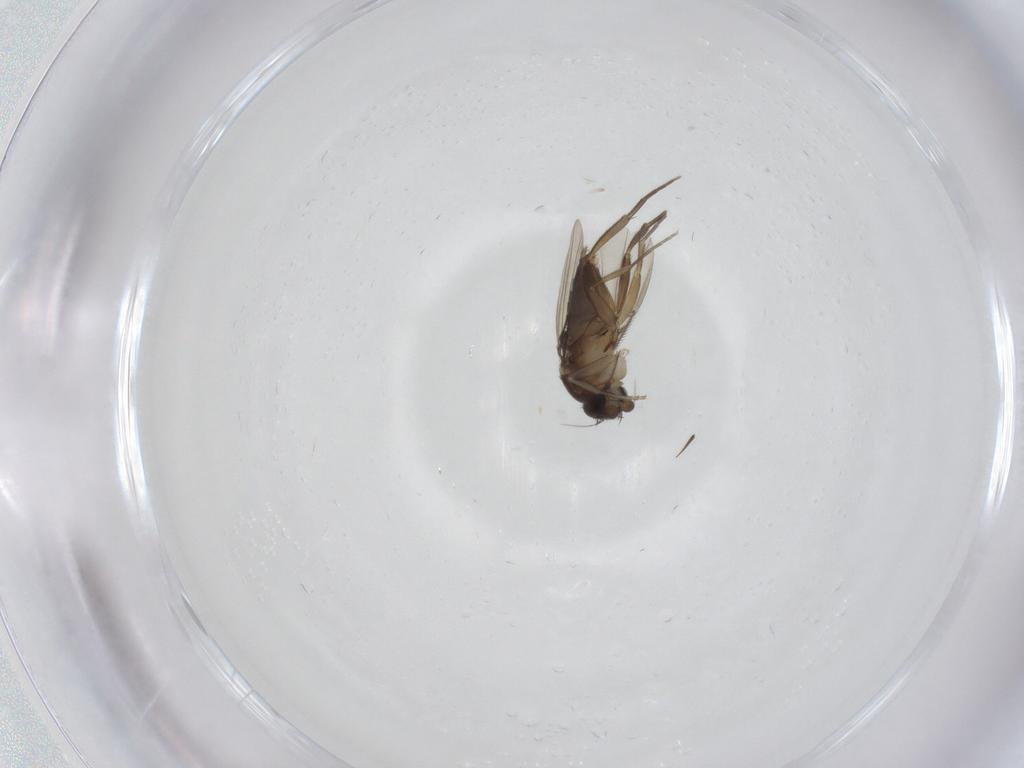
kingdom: Animalia
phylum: Arthropoda
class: Insecta
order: Diptera
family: Phoridae
